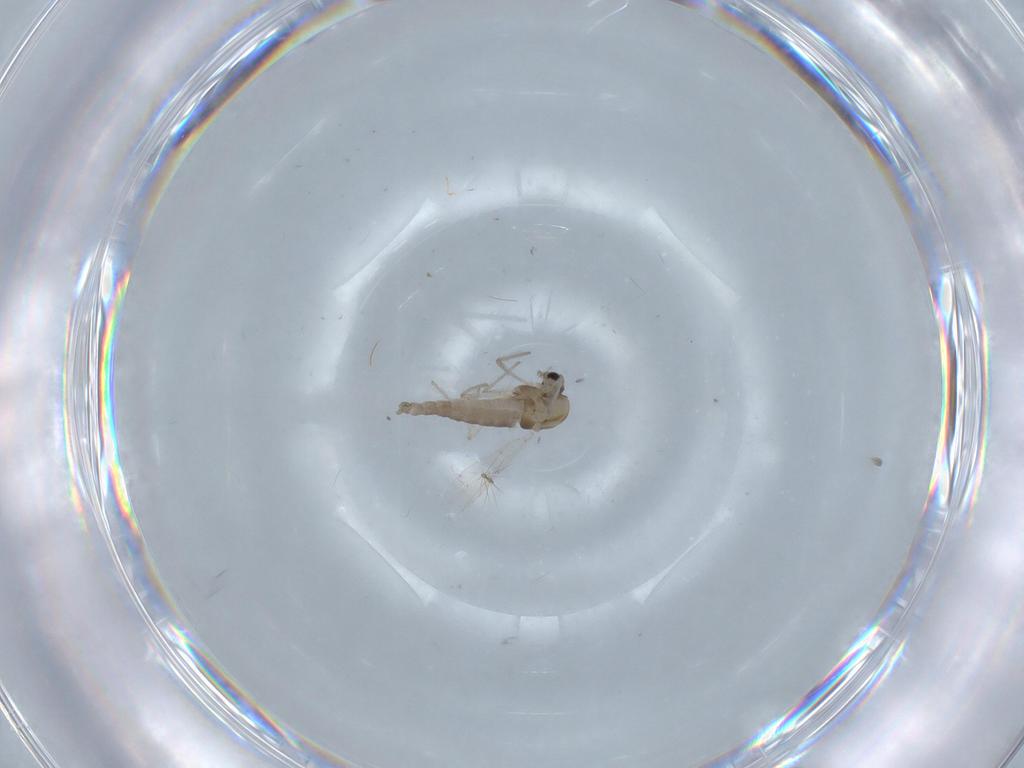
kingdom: Animalia
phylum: Arthropoda
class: Insecta
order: Diptera
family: Chironomidae
